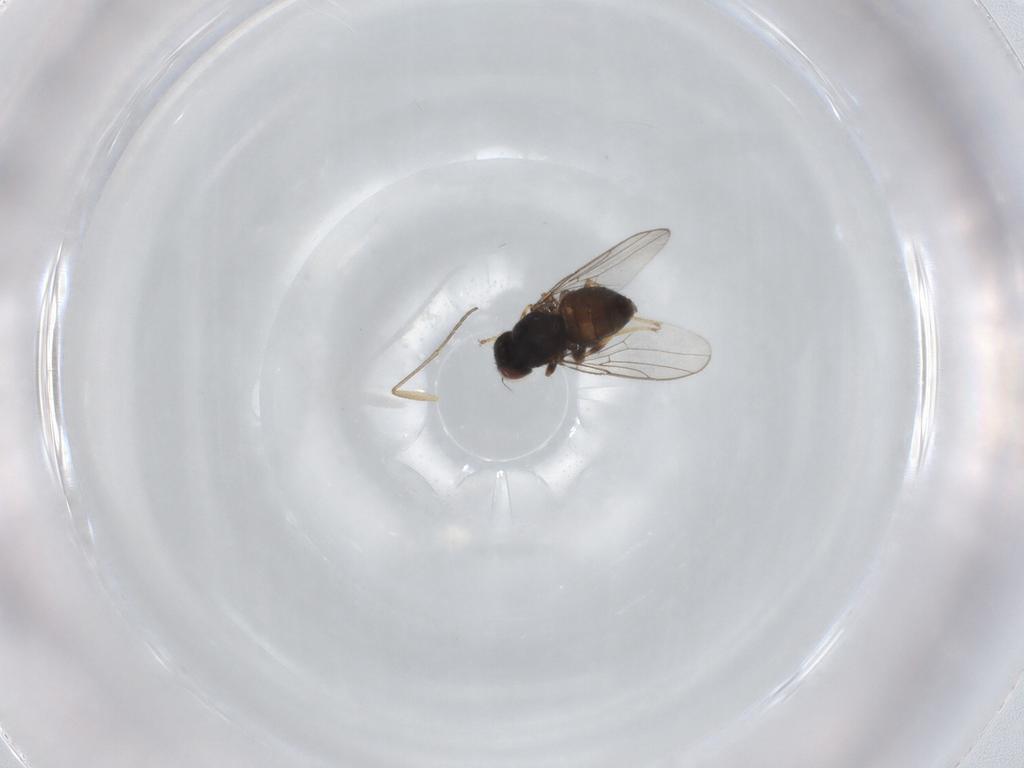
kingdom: Animalia
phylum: Arthropoda
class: Insecta
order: Diptera
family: Chloropidae
